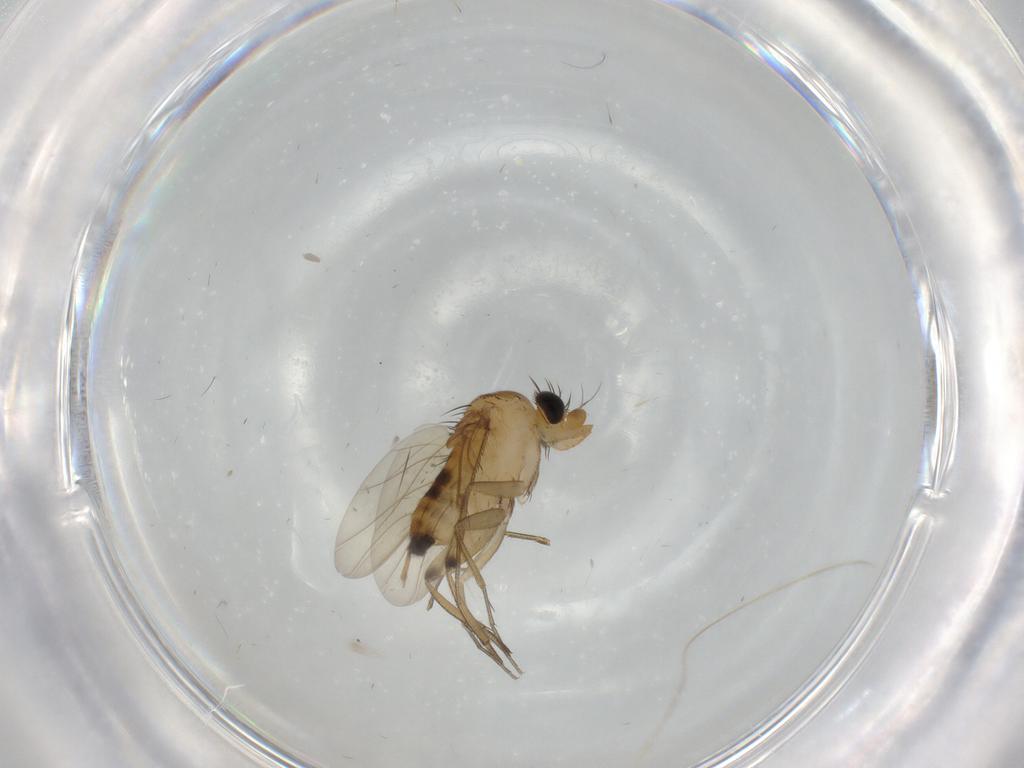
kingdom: Animalia
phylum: Arthropoda
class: Insecta
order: Diptera
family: Phoridae
